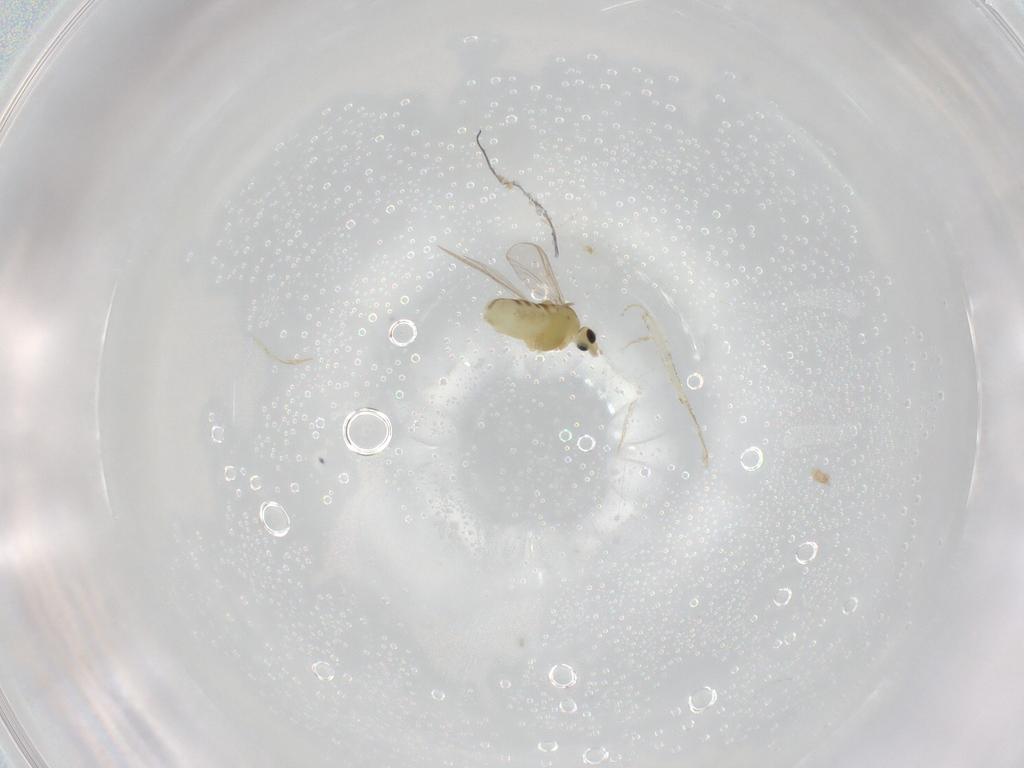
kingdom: Animalia
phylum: Arthropoda
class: Insecta
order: Diptera
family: Chironomidae
